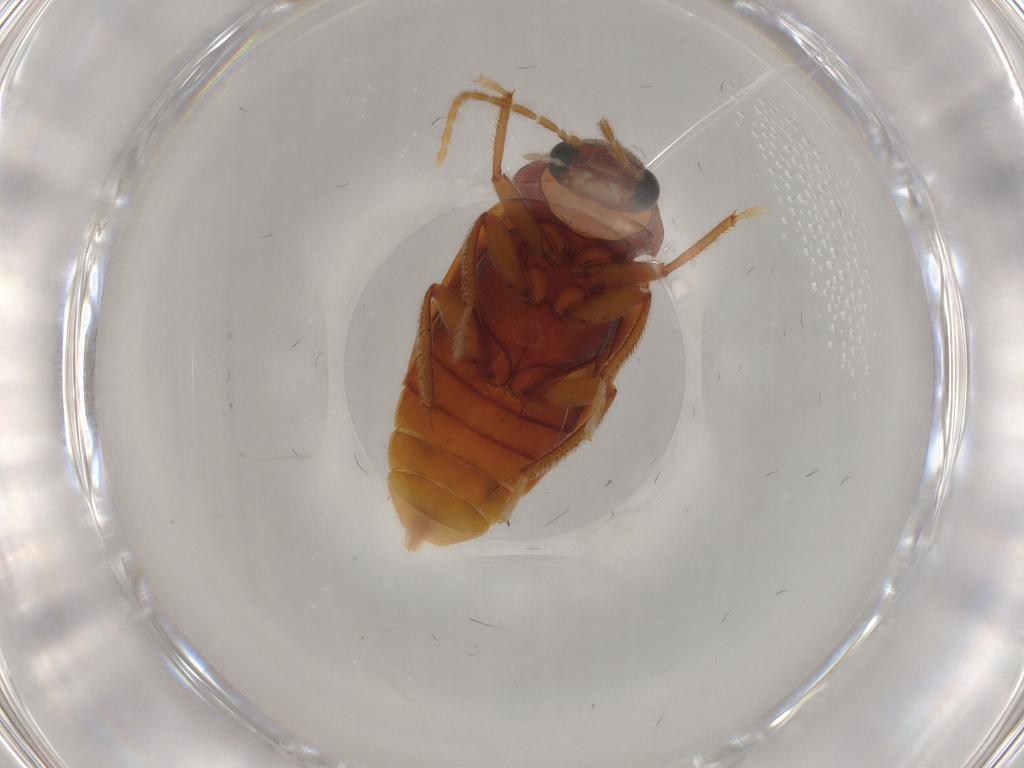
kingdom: Animalia
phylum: Arthropoda
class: Insecta
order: Coleoptera
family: Ptilodactylidae
